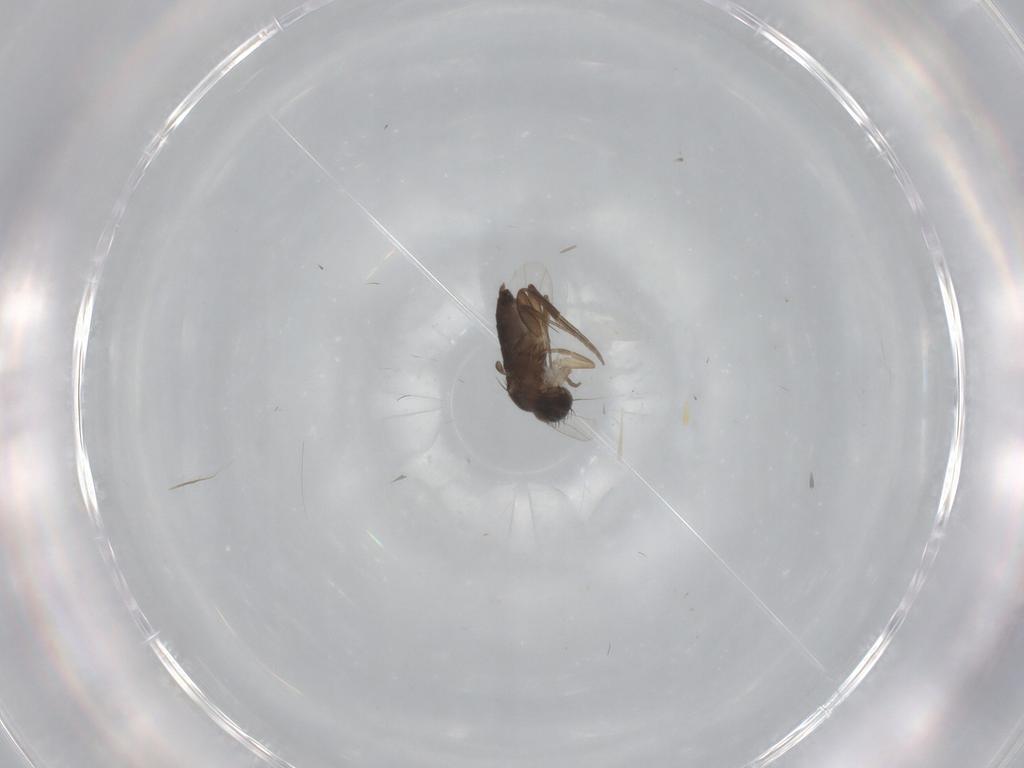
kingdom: Animalia
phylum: Arthropoda
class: Insecta
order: Diptera
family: Phoridae
